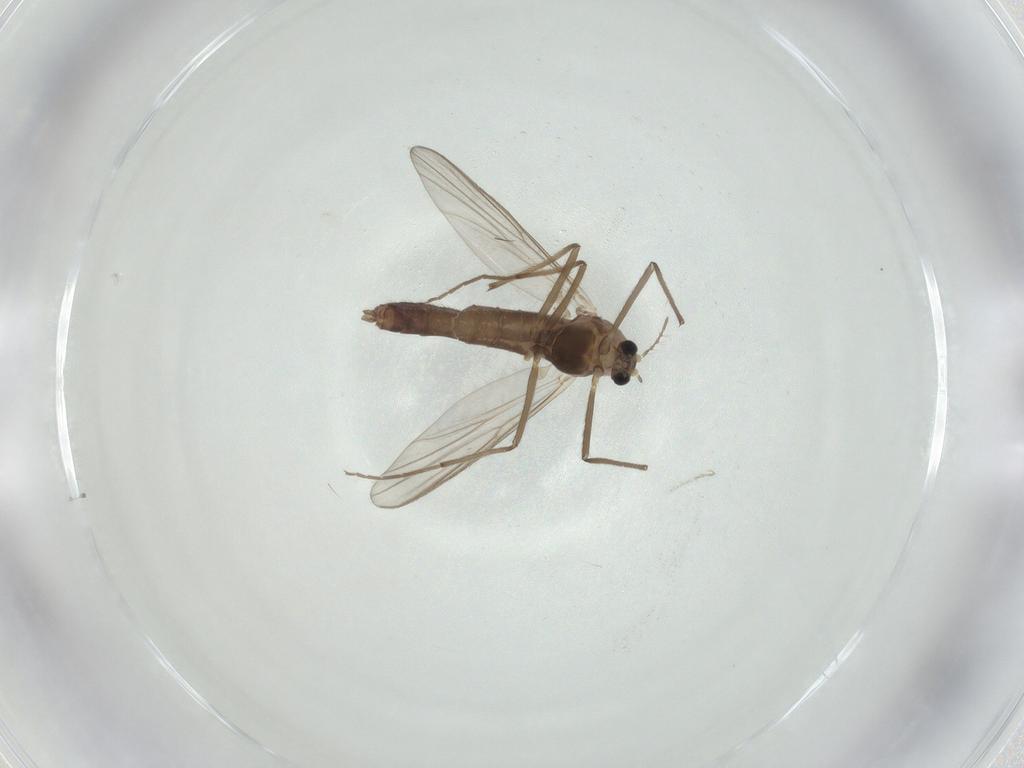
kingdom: Animalia
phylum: Arthropoda
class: Insecta
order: Diptera
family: Chironomidae
